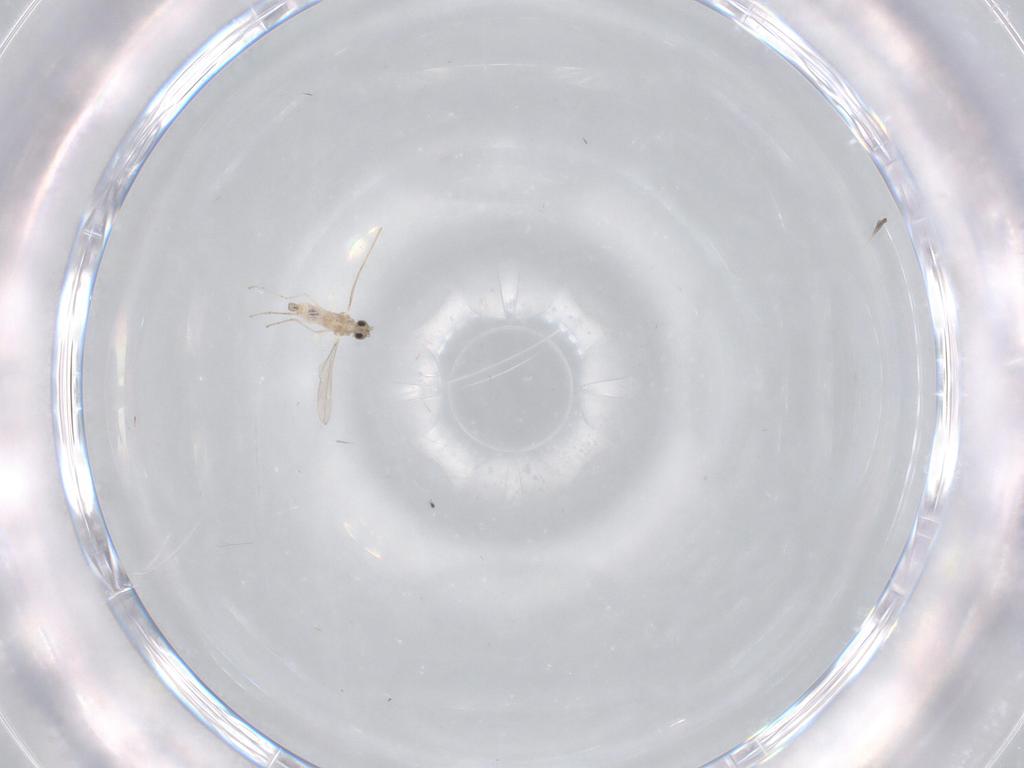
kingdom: Animalia
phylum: Arthropoda
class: Insecta
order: Diptera
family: Cecidomyiidae
